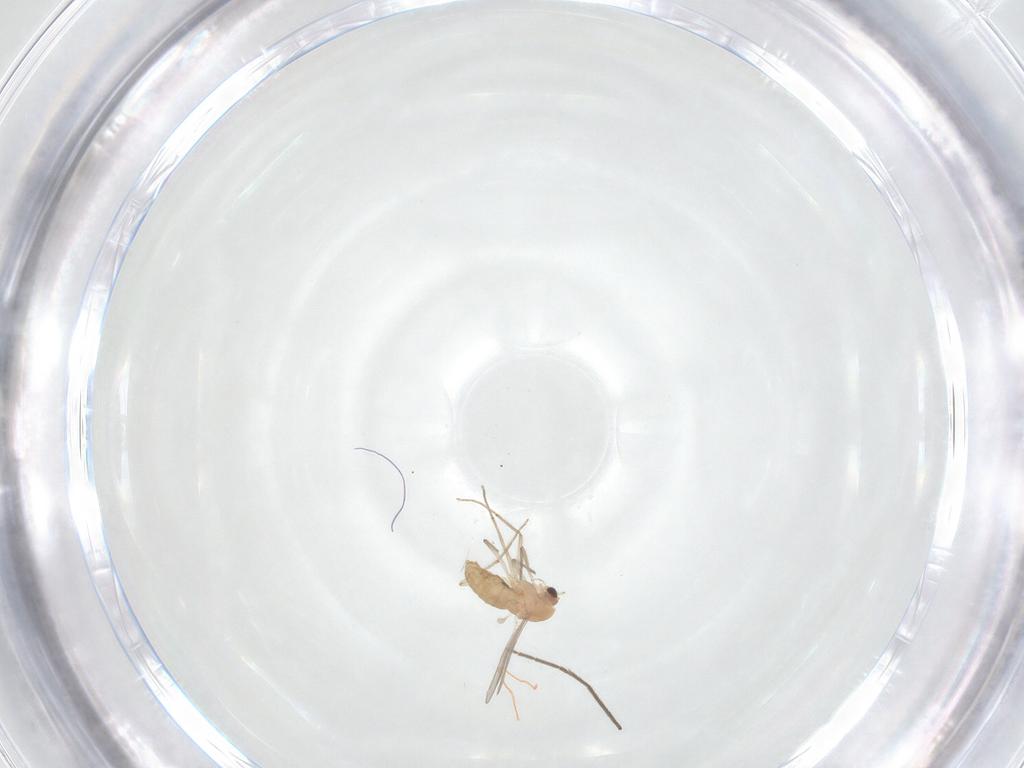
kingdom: Animalia
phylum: Arthropoda
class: Insecta
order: Diptera
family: Chironomidae
